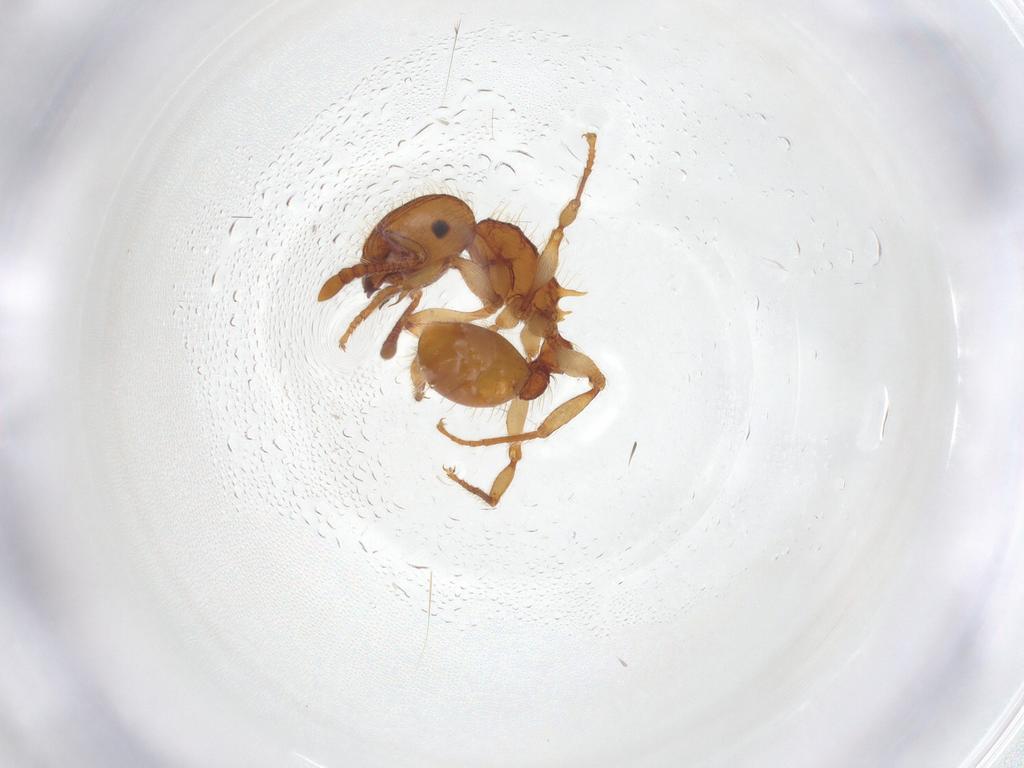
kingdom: Animalia
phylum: Arthropoda
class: Insecta
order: Hymenoptera
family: Formicidae
